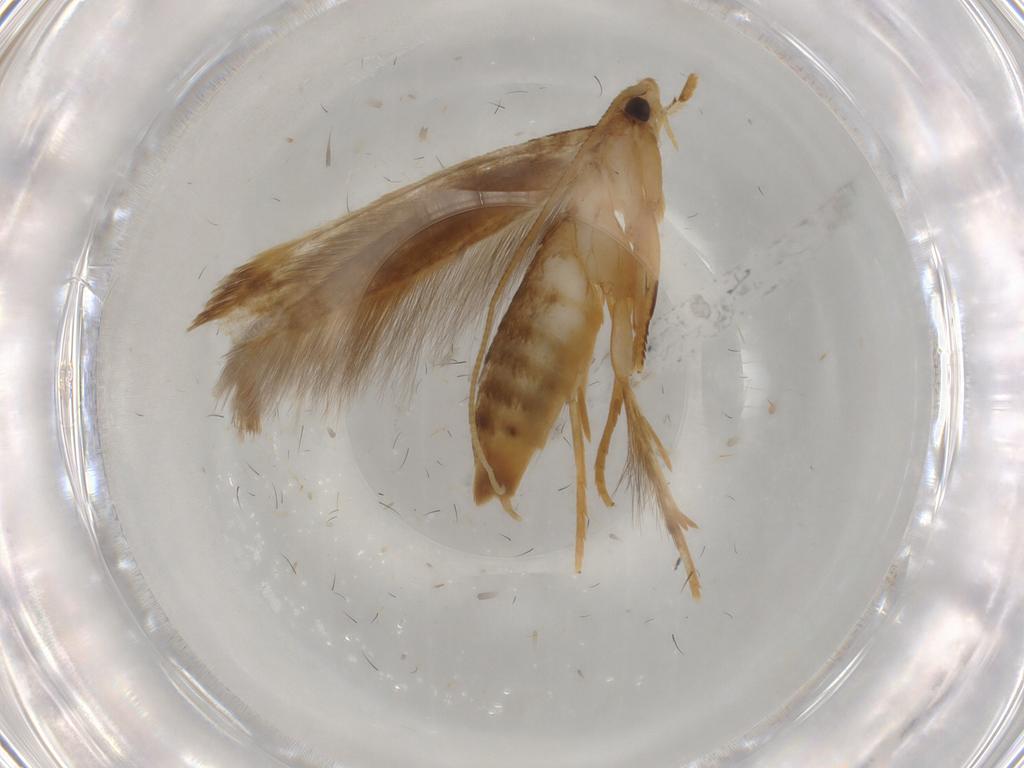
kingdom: Animalia
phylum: Arthropoda
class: Insecta
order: Lepidoptera
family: Tineidae
